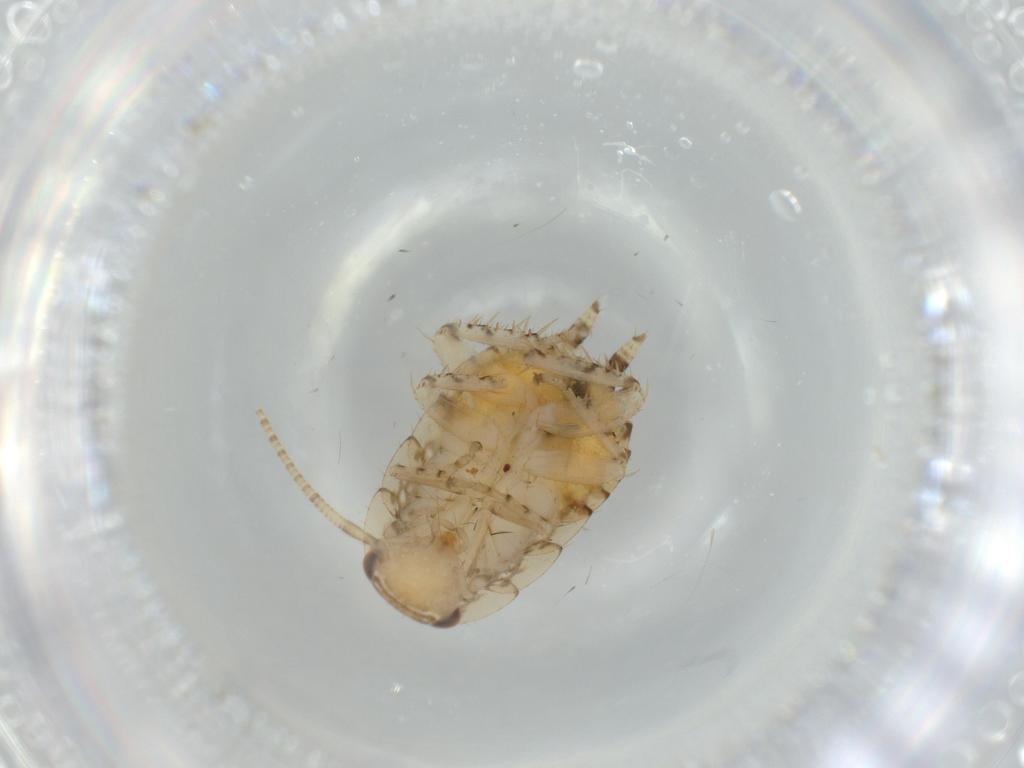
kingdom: Animalia
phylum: Arthropoda
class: Insecta
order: Blattodea
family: Ectobiidae
